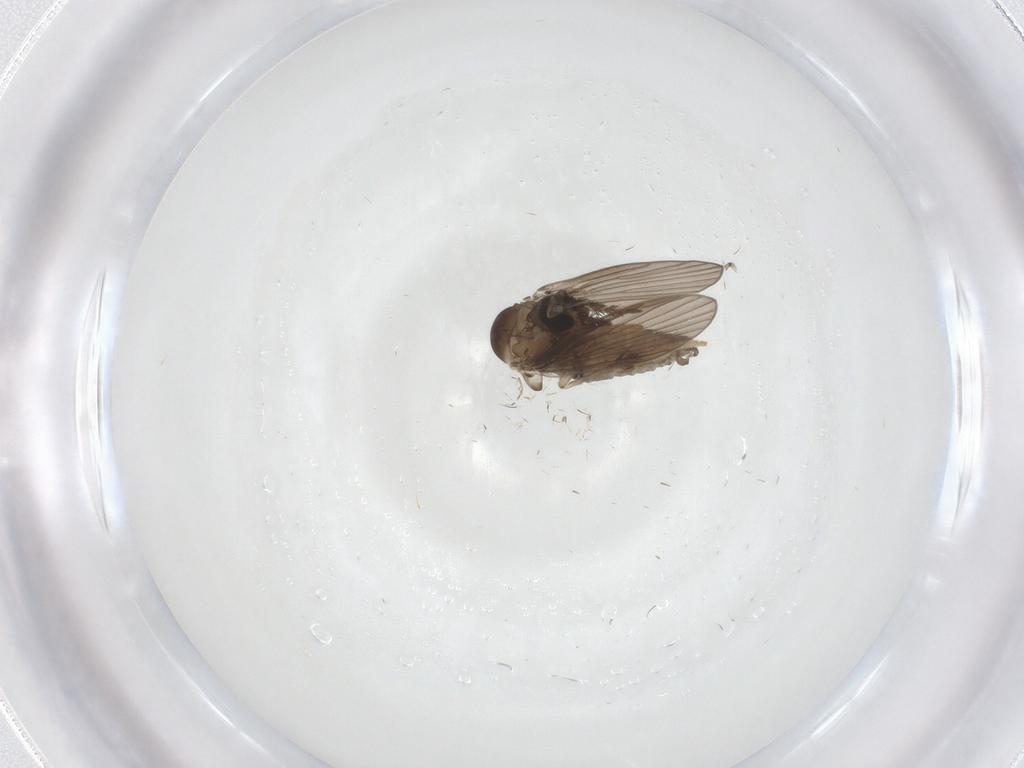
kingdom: Animalia
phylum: Arthropoda
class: Insecta
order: Diptera
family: Psychodidae
